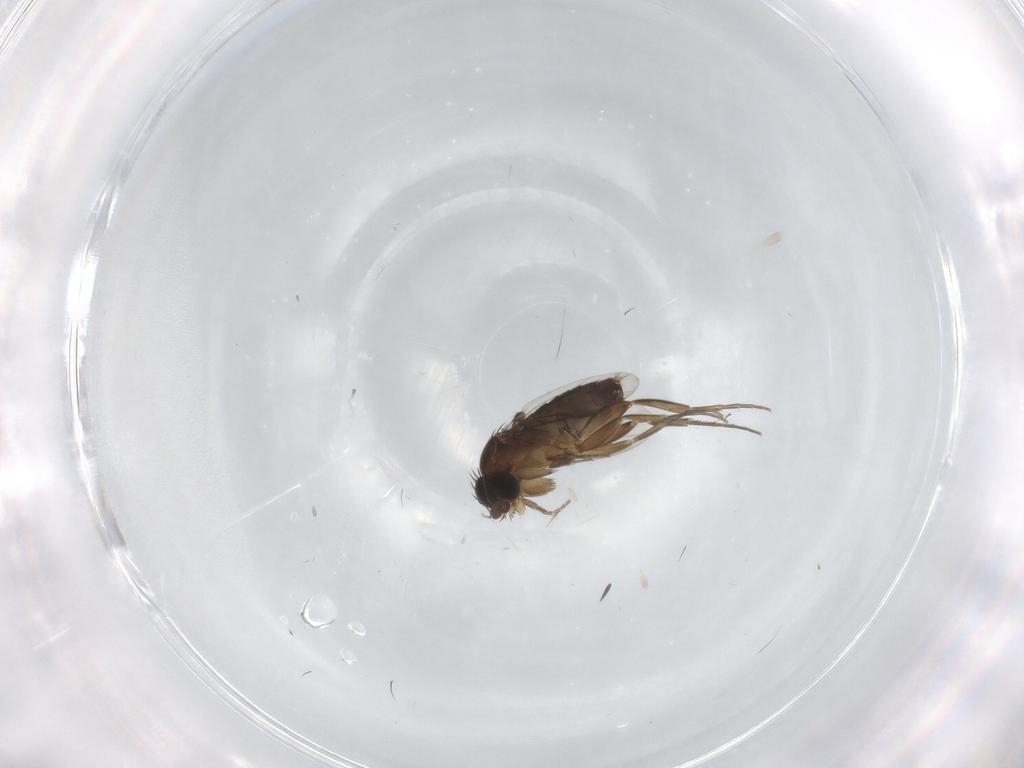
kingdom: Animalia
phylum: Arthropoda
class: Insecta
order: Diptera
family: Phoridae
